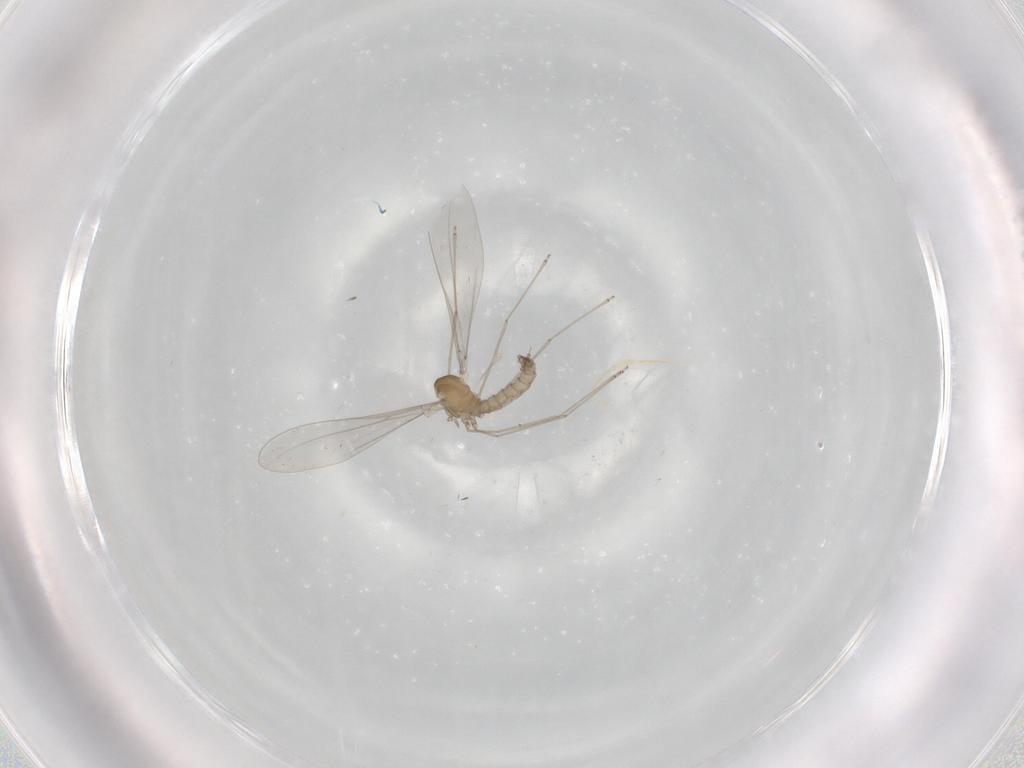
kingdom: Animalia
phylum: Arthropoda
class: Insecta
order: Diptera
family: Cecidomyiidae
